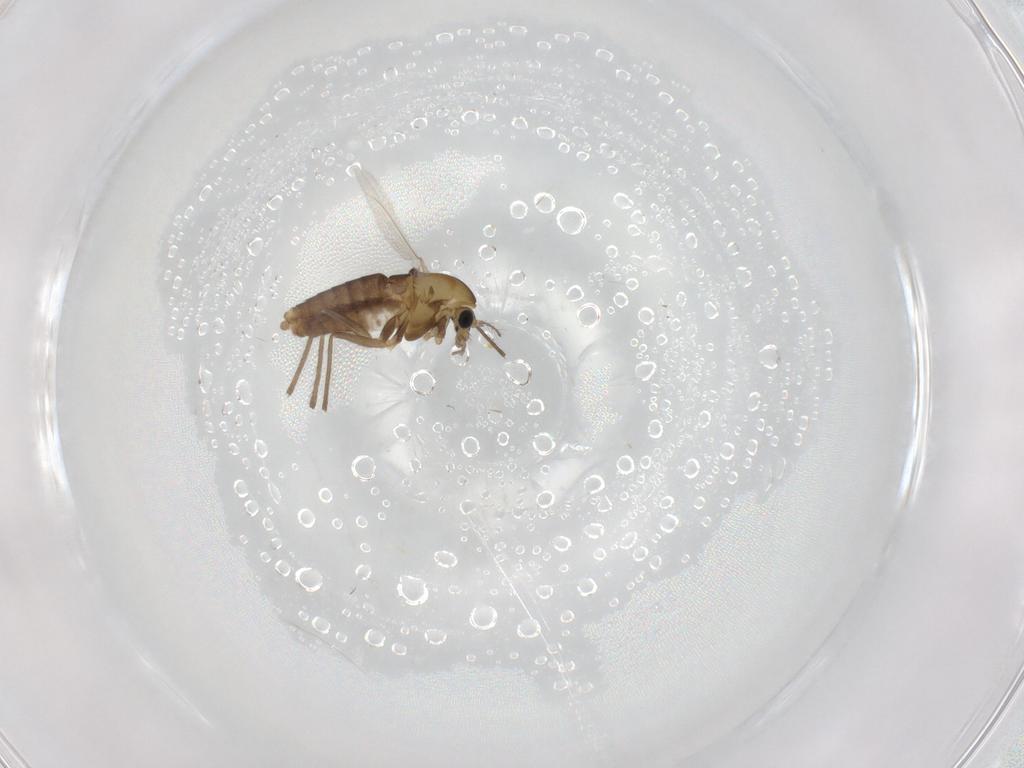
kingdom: Animalia
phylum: Arthropoda
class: Insecta
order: Diptera
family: Chironomidae
